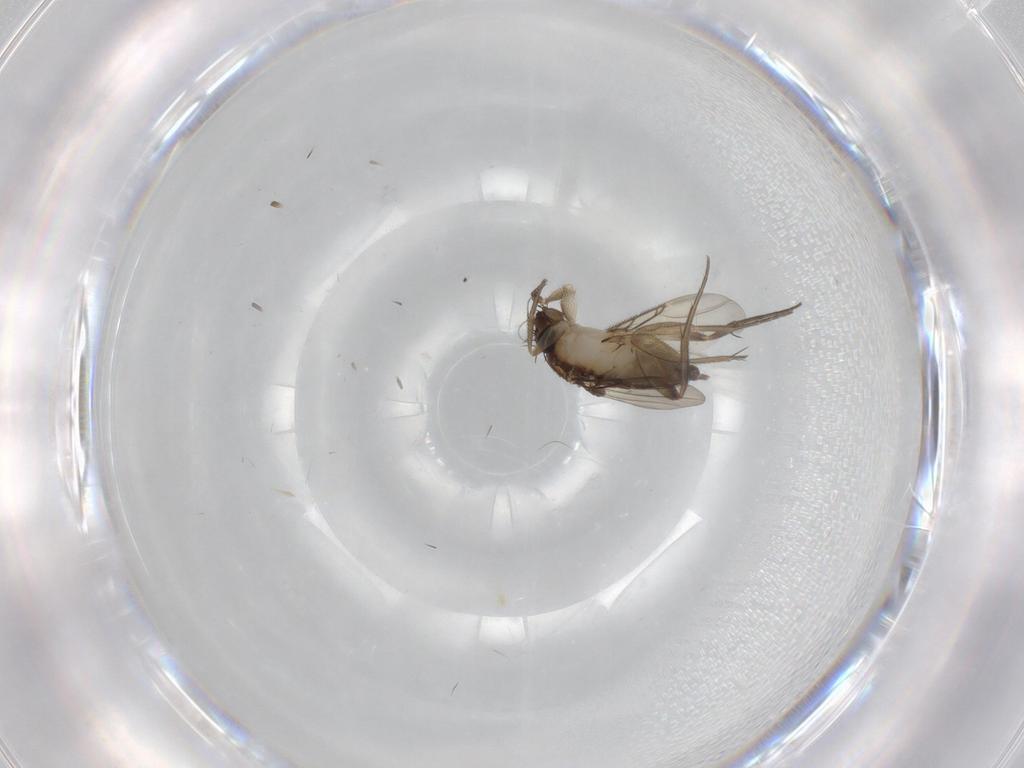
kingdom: Animalia
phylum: Arthropoda
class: Insecta
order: Diptera
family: Phoridae
